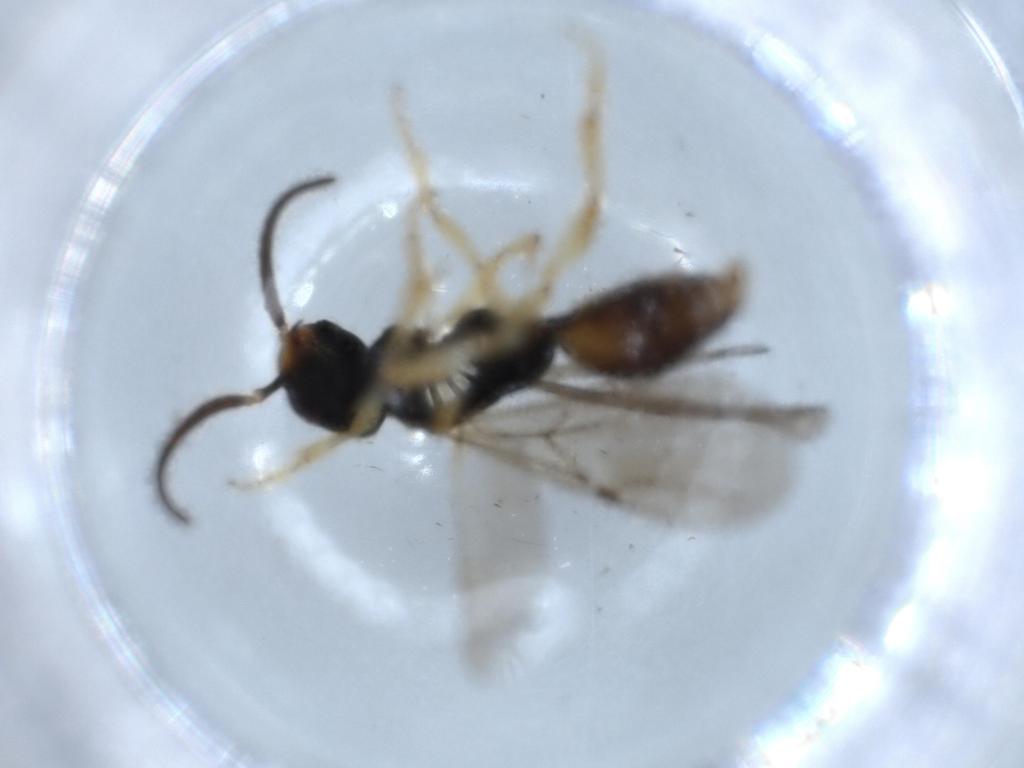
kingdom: Animalia
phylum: Arthropoda
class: Insecta
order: Hymenoptera
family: Bethylidae
